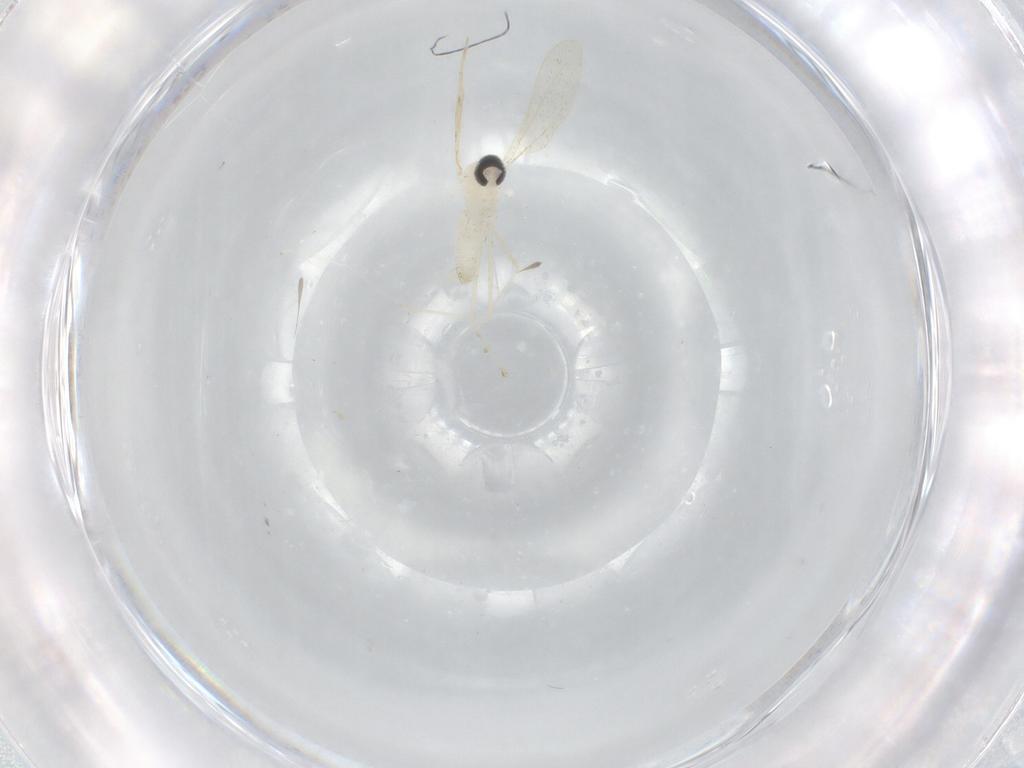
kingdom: Animalia
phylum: Arthropoda
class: Insecta
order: Diptera
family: Cecidomyiidae
